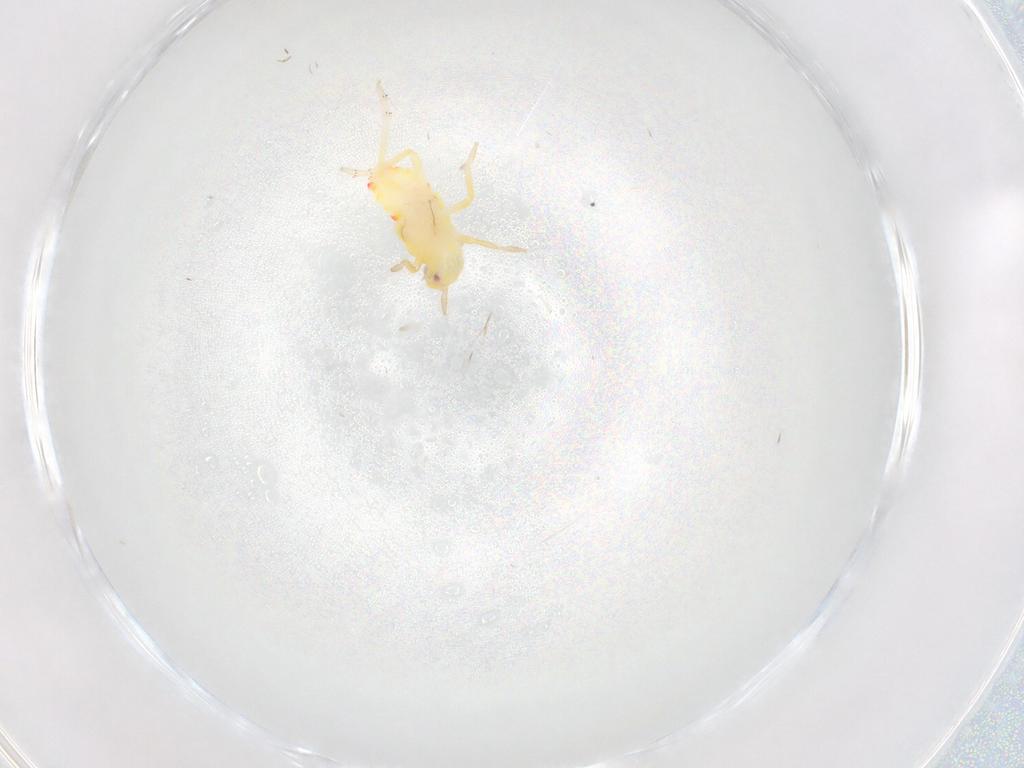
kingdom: Animalia
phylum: Arthropoda
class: Insecta
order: Hemiptera
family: Tropiduchidae
